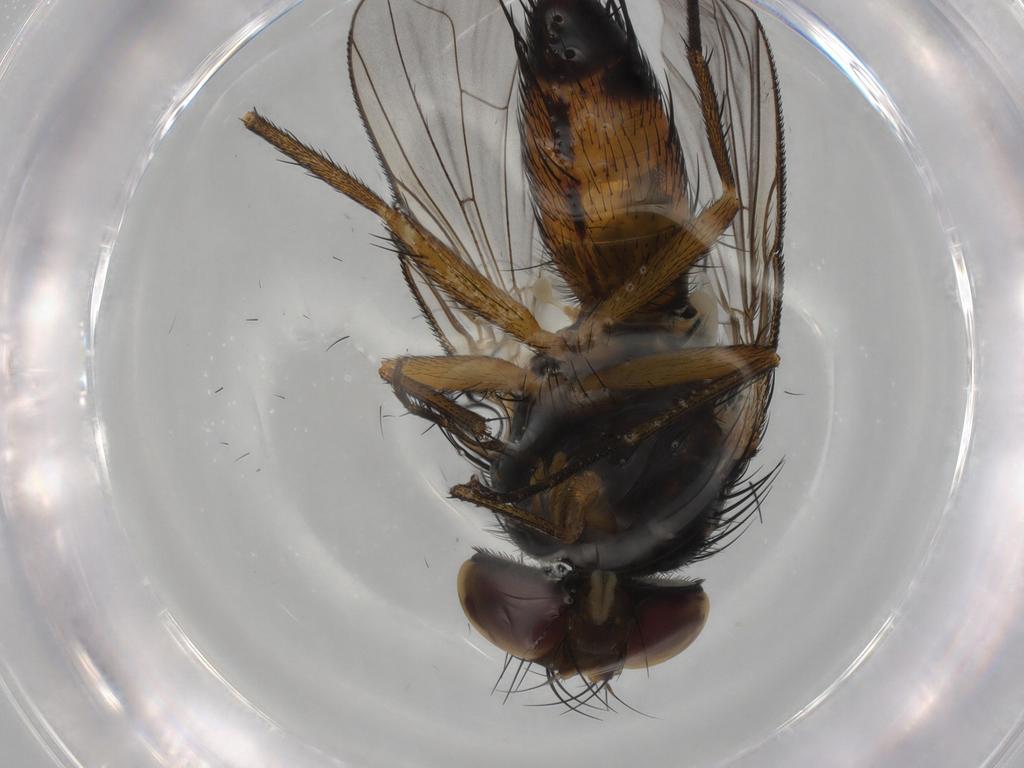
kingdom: Animalia
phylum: Arthropoda
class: Insecta
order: Diptera
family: Tachinidae
